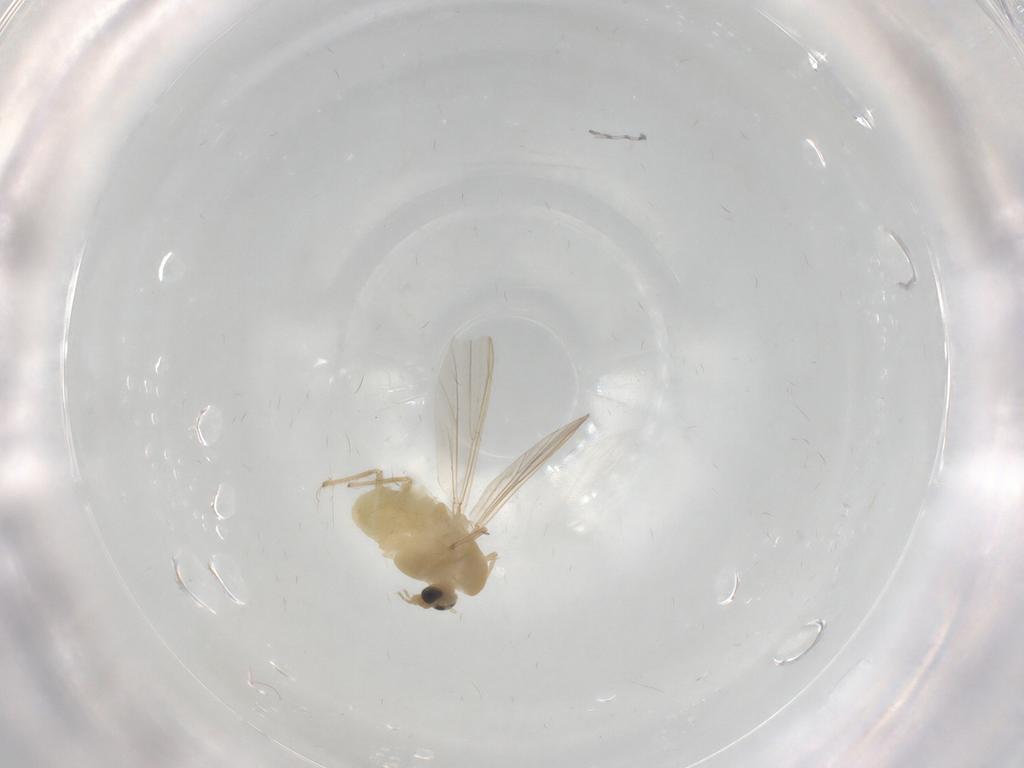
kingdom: Animalia
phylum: Arthropoda
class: Insecta
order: Diptera
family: Chironomidae
